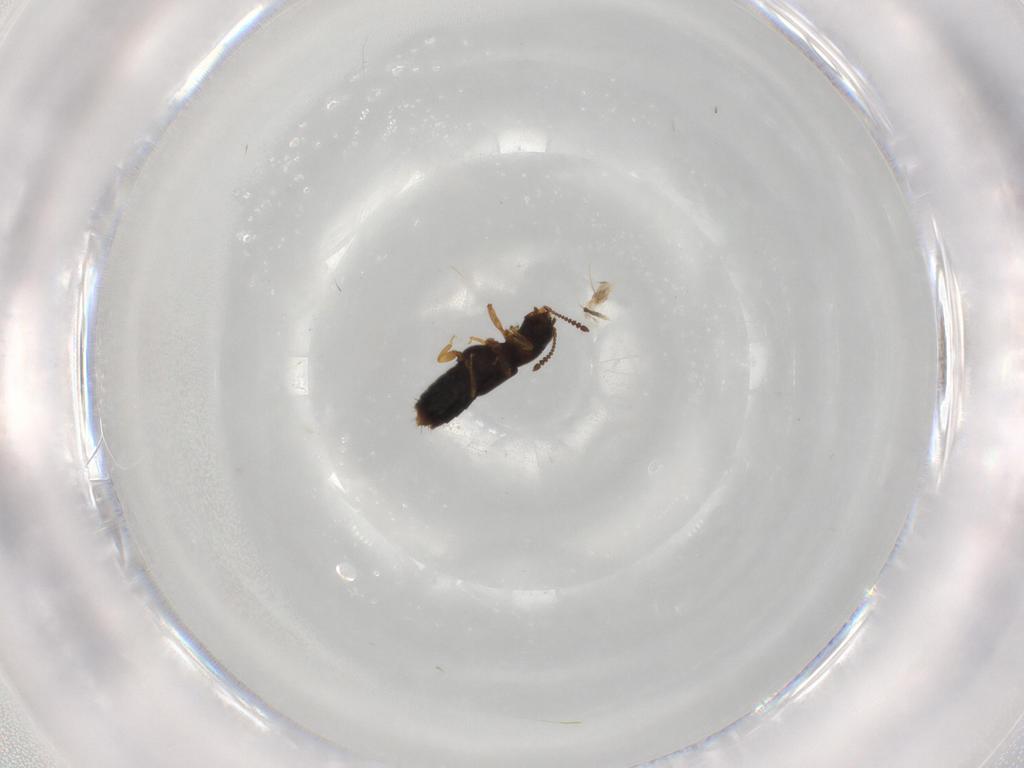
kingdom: Animalia
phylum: Arthropoda
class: Insecta
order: Coleoptera
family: Staphylinidae
